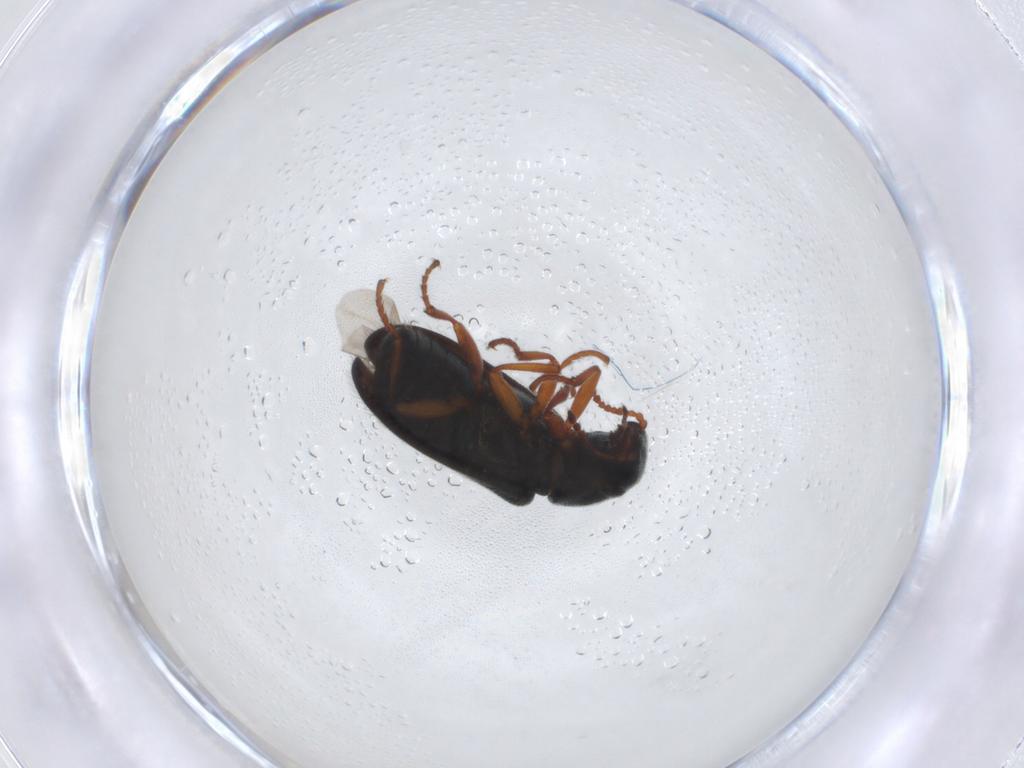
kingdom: Animalia
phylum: Arthropoda
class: Insecta
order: Coleoptera
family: Melyridae
